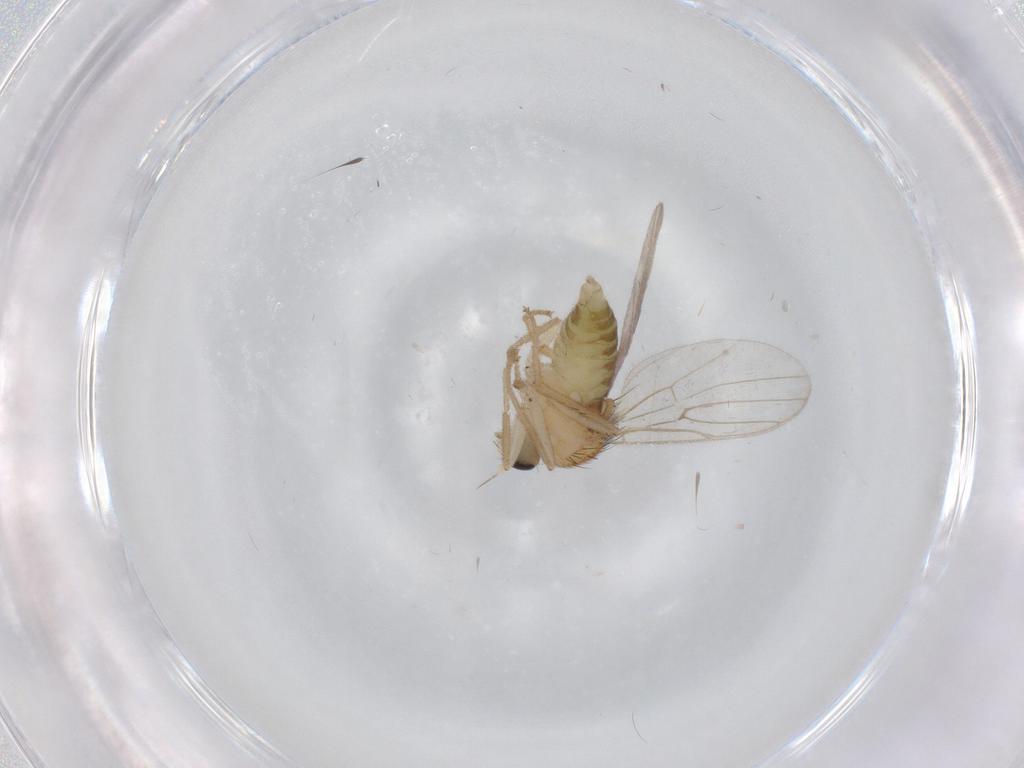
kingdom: Animalia
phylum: Arthropoda
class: Insecta
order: Diptera
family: Hybotidae
